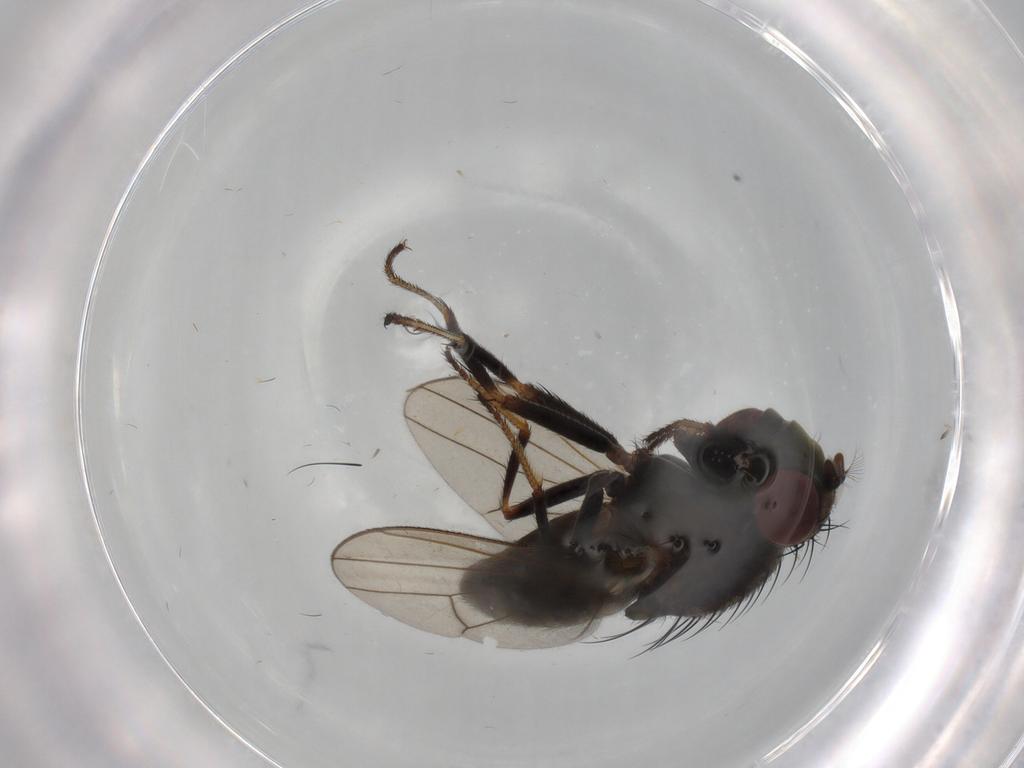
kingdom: Animalia
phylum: Arthropoda
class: Insecta
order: Diptera
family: Ephydridae
